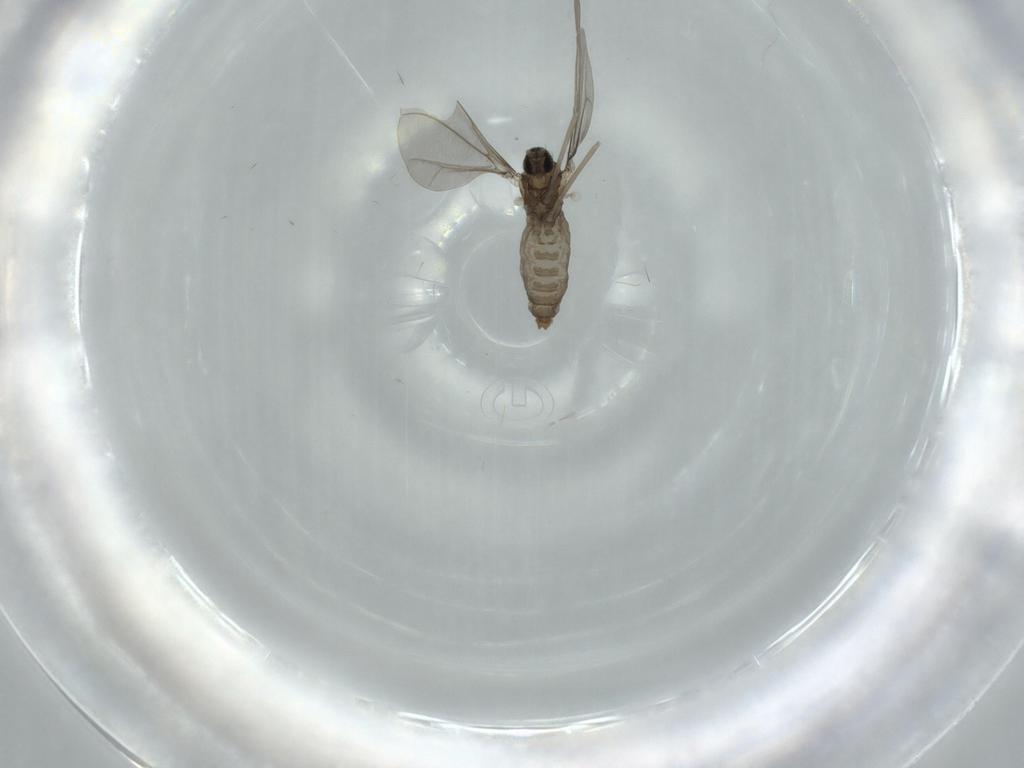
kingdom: Animalia
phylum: Arthropoda
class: Insecta
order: Diptera
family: Cecidomyiidae
